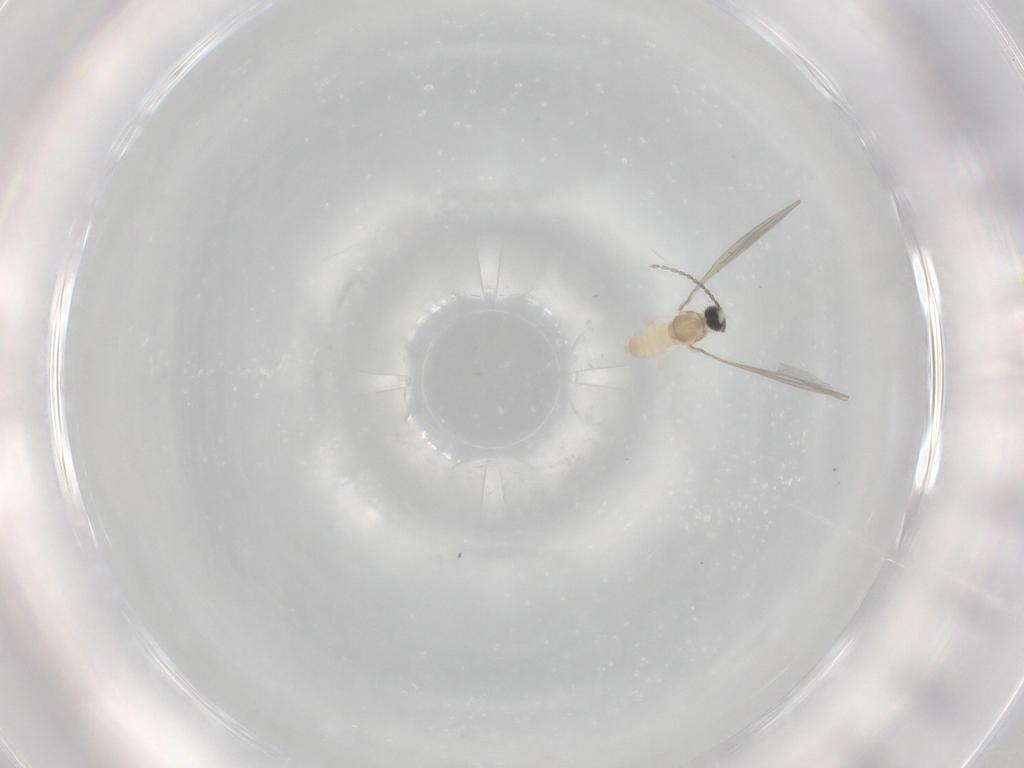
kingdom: Animalia
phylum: Arthropoda
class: Insecta
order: Diptera
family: Cecidomyiidae
